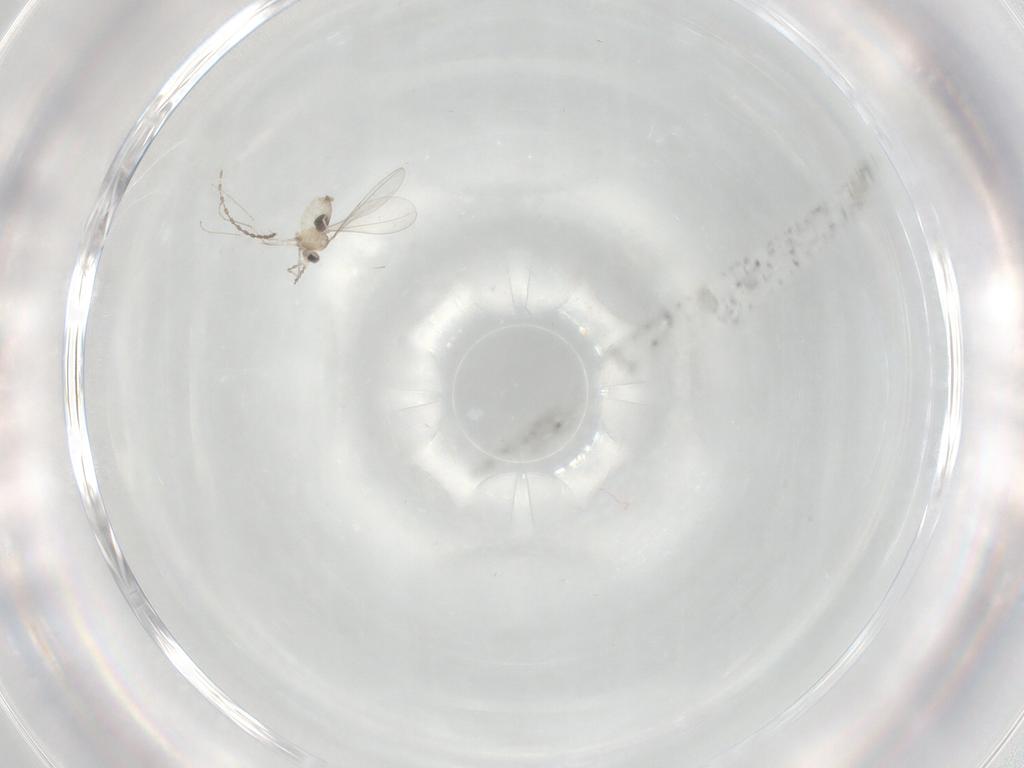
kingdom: Animalia
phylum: Arthropoda
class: Insecta
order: Diptera
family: Cecidomyiidae
